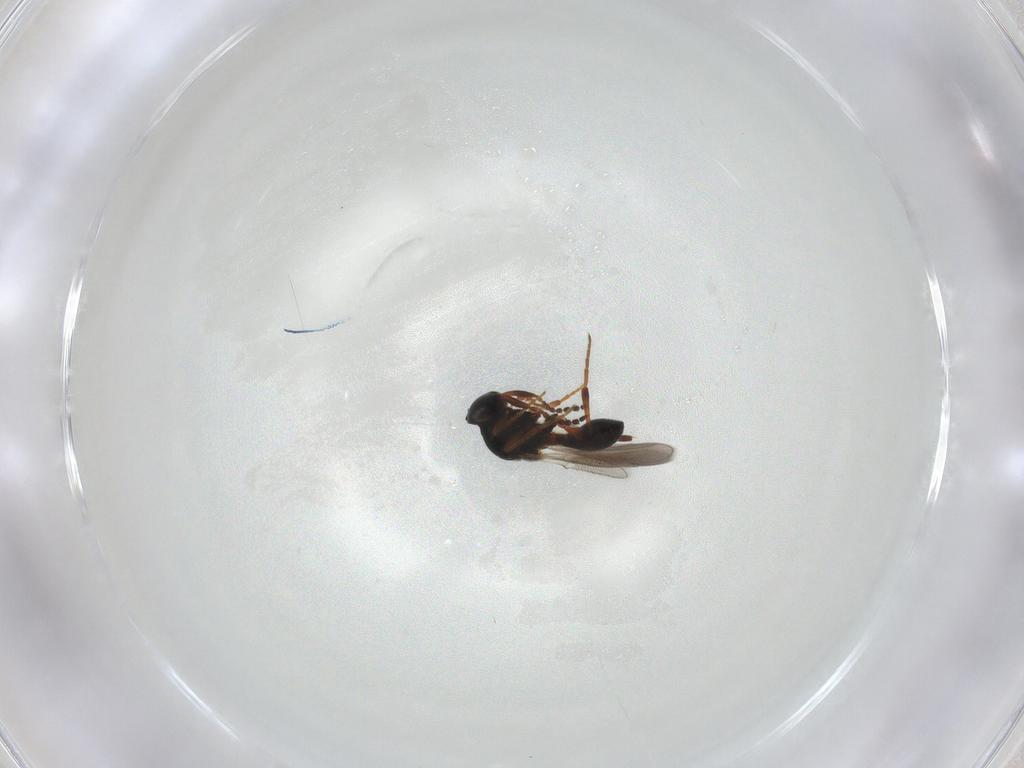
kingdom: Animalia
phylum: Arthropoda
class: Insecta
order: Hymenoptera
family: Platygastridae
